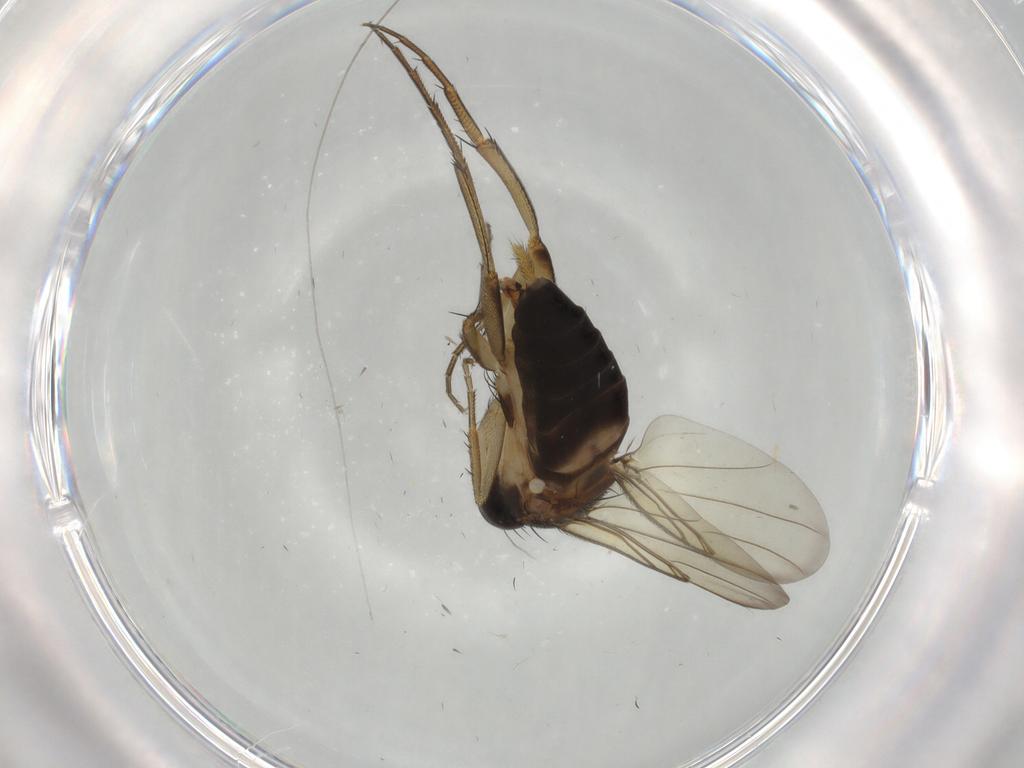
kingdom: Animalia
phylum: Arthropoda
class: Insecta
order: Diptera
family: Phoridae
